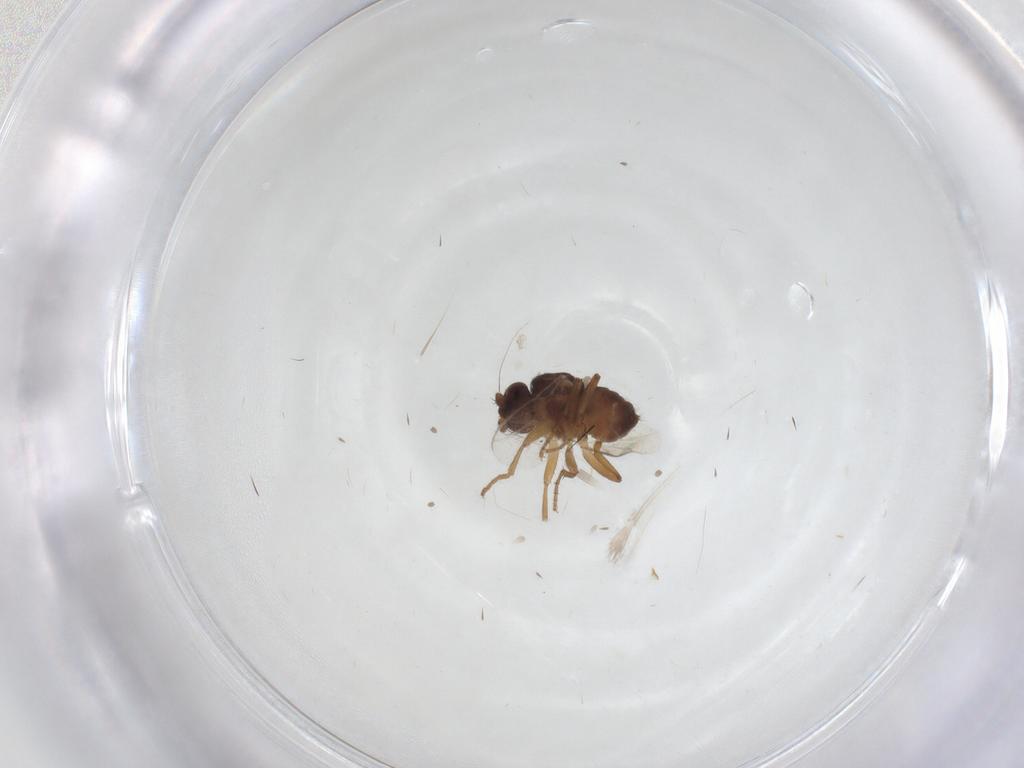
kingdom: Animalia
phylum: Arthropoda
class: Insecta
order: Diptera
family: Sphaeroceridae
